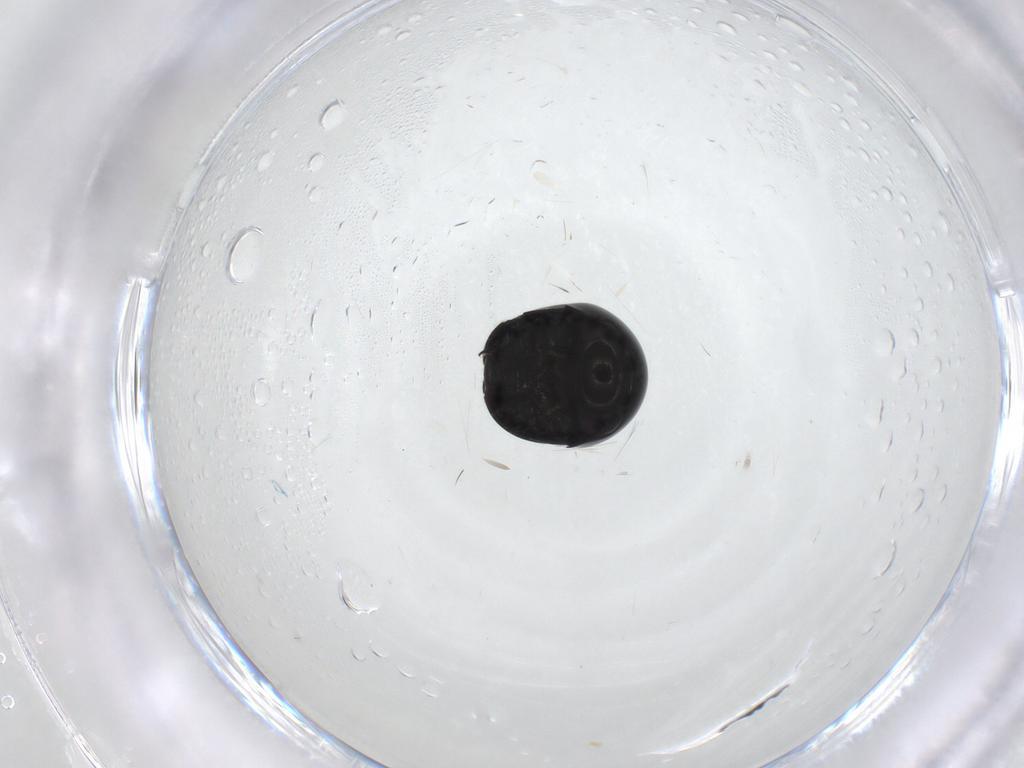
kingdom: Animalia
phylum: Arthropoda
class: Insecta
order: Coleoptera
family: Cybocephalidae
